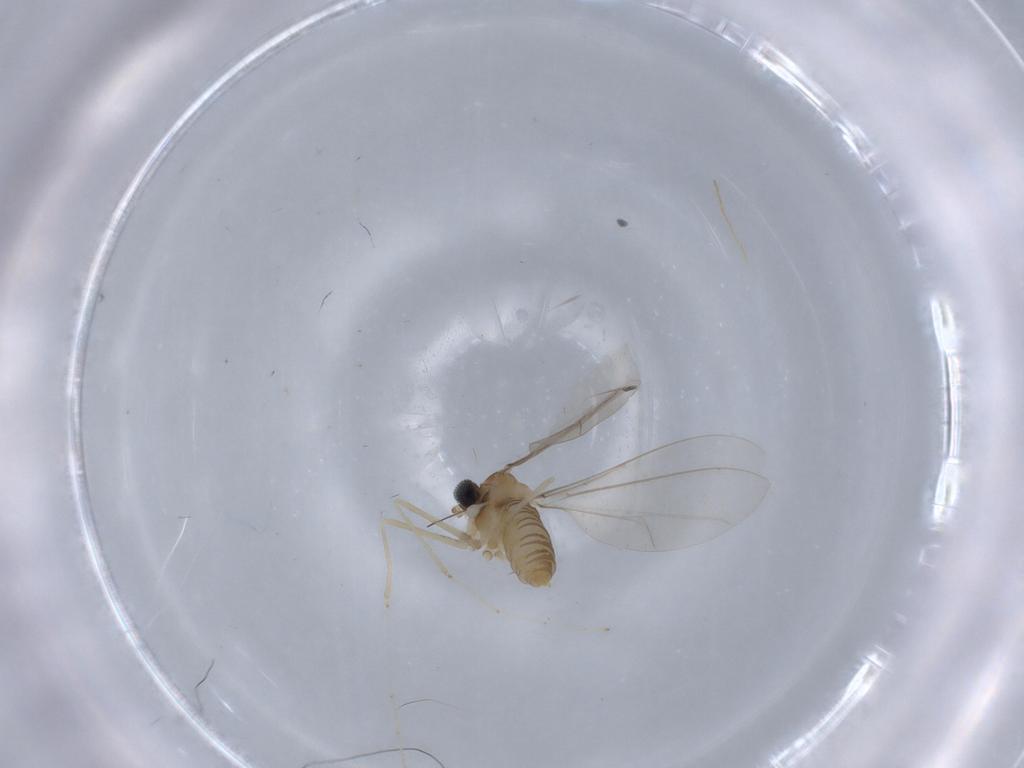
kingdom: Animalia
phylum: Arthropoda
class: Insecta
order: Diptera
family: Cecidomyiidae
